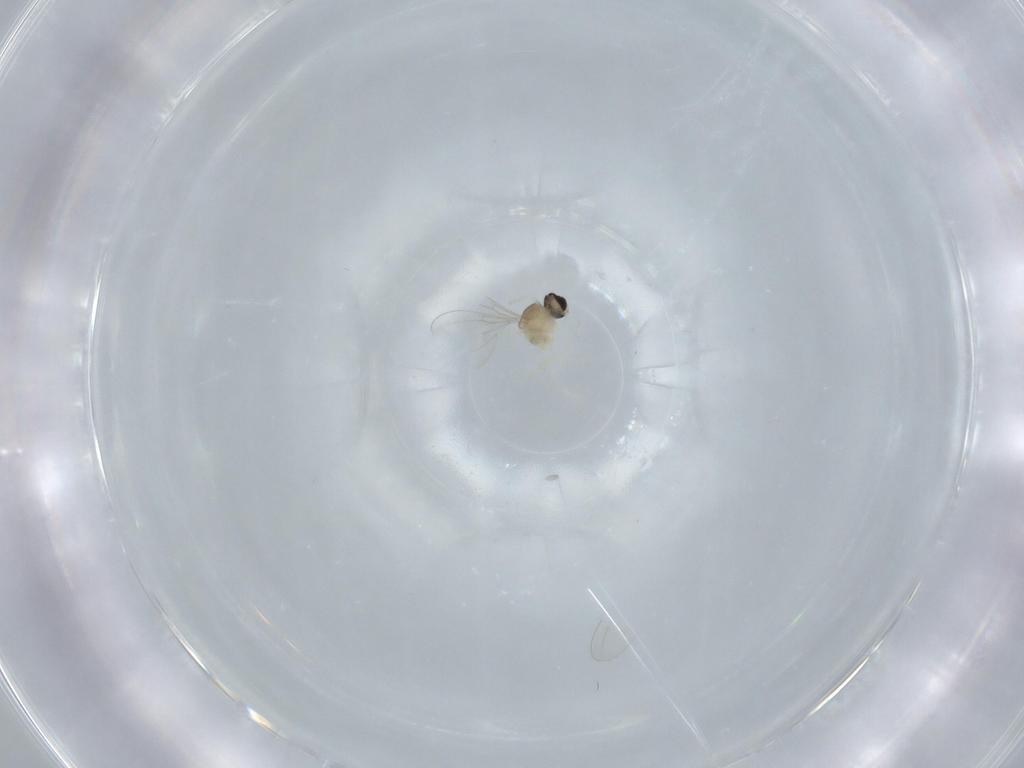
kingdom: Animalia
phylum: Arthropoda
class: Insecta
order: Diptera
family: Cecidomyiidae
